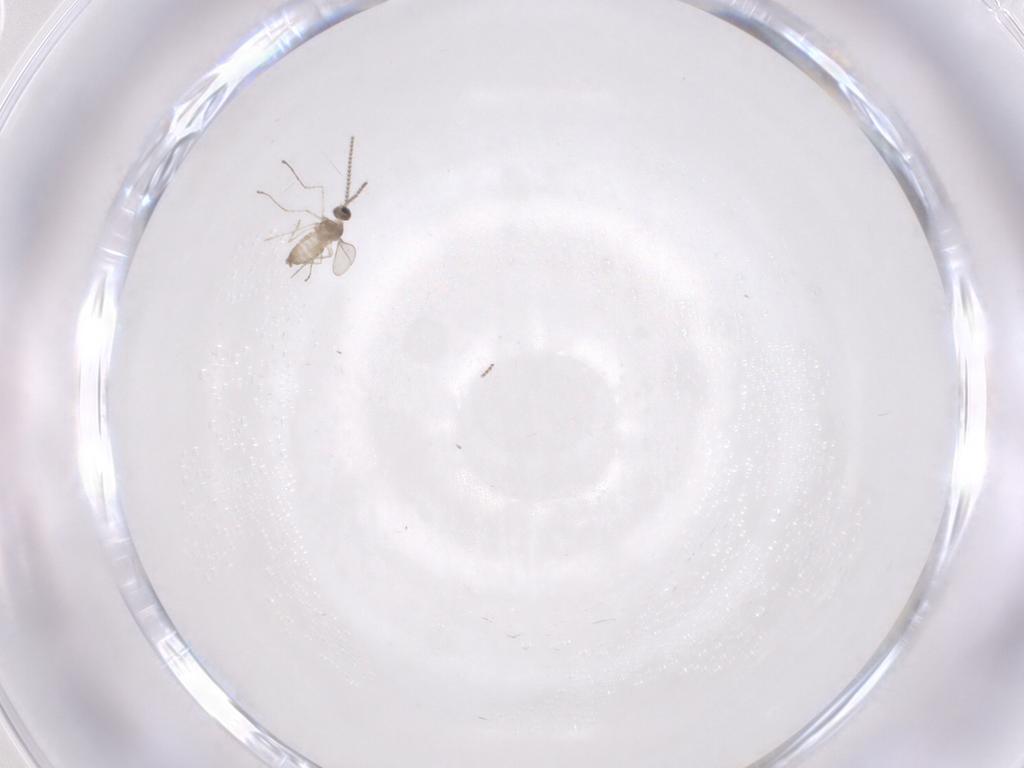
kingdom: Animalia
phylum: Arthropoda
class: Insecta
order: Diptera
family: Cecidomyiidae
